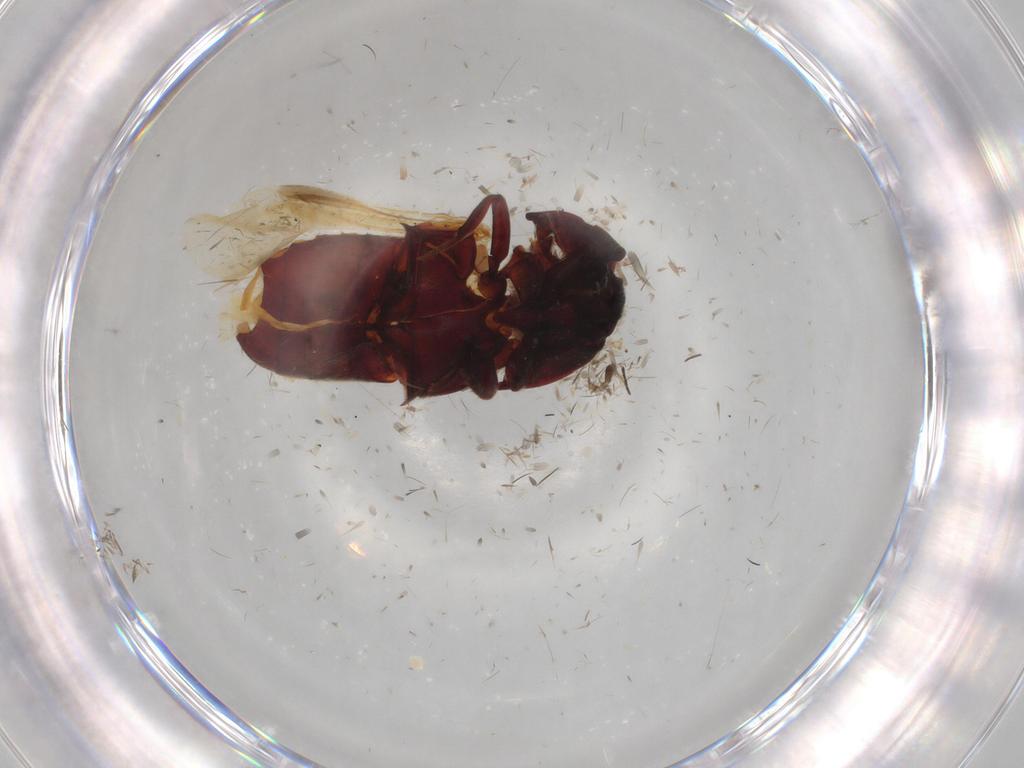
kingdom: Animalia
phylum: Arthropoda
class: Insecta
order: Coleoptera
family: Throscidae
